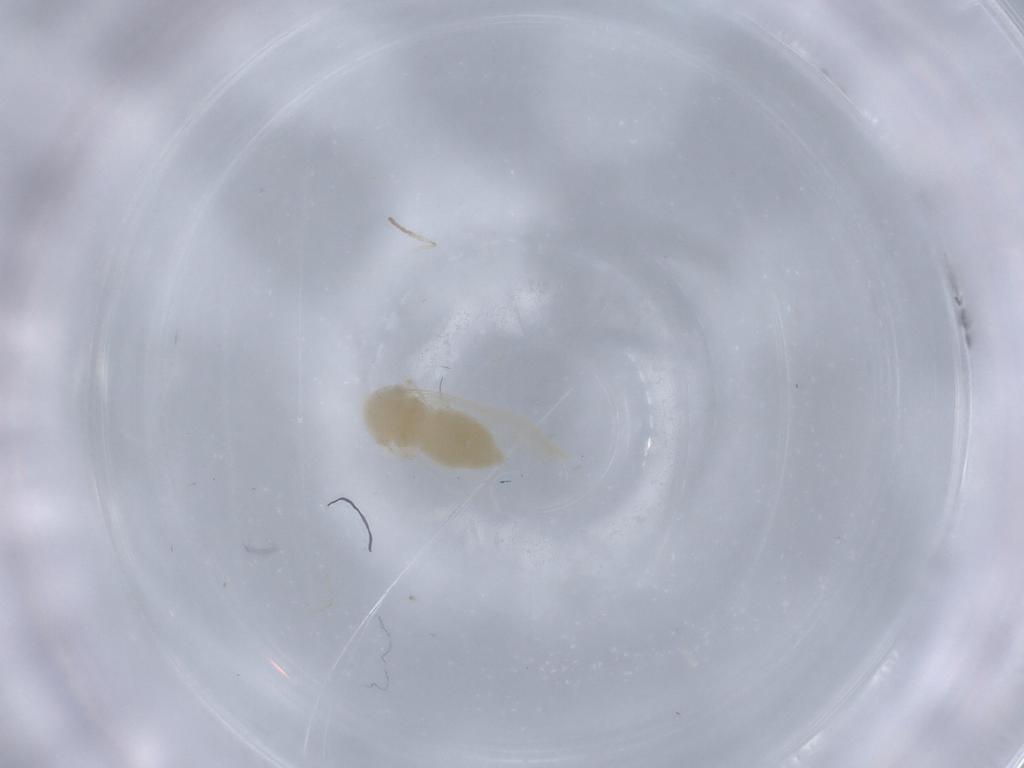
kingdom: Animalia
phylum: Arthropoda
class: Insecta
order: Hemiptera
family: Aleyrodidae
